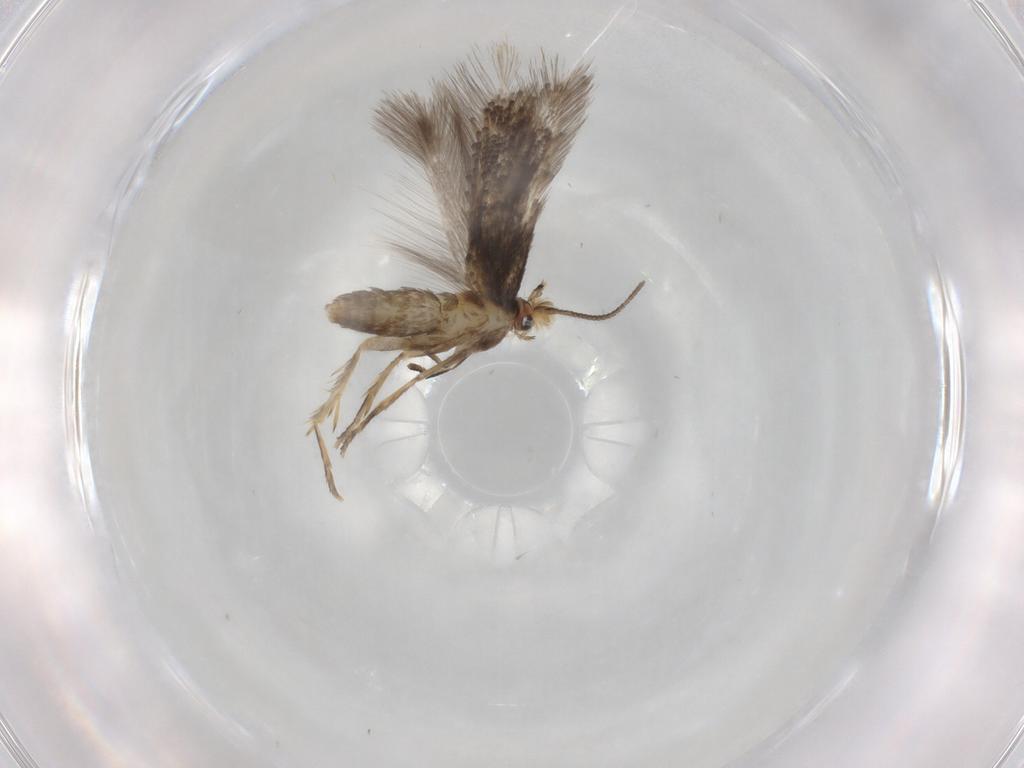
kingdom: Animalia
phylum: Arthropoda
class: Insecta
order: Lepidoptera
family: Nepticulidae
